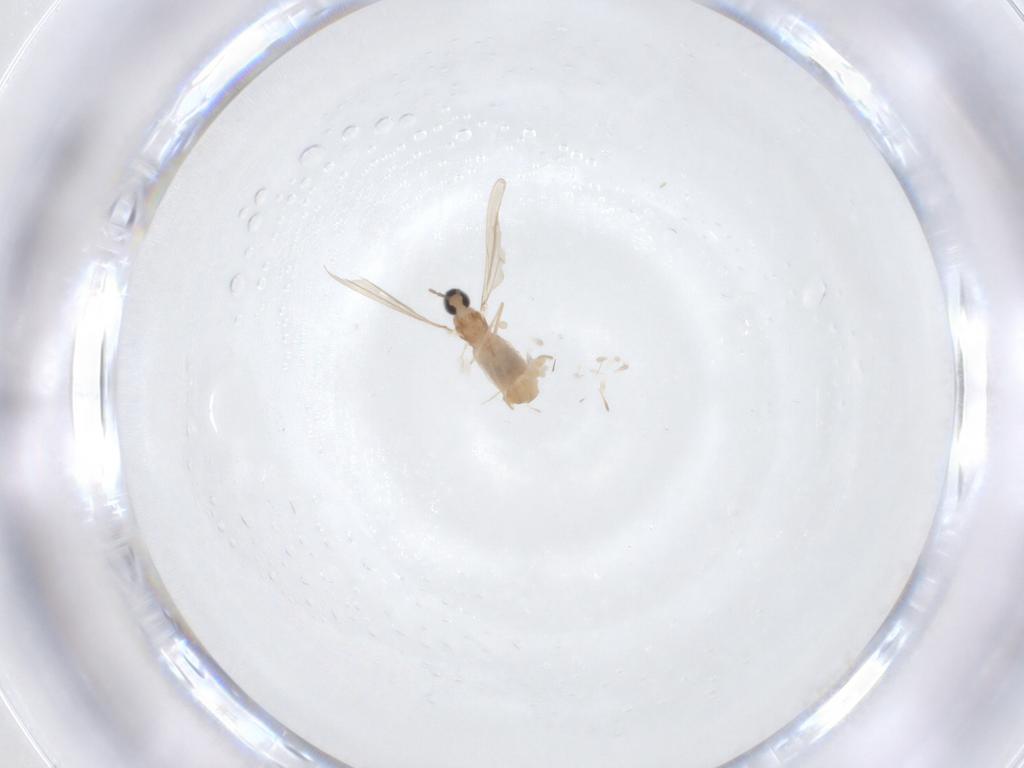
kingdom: Animalia
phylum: Arthropoda
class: Insecta
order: Diptera
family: Cecidomyiidae
